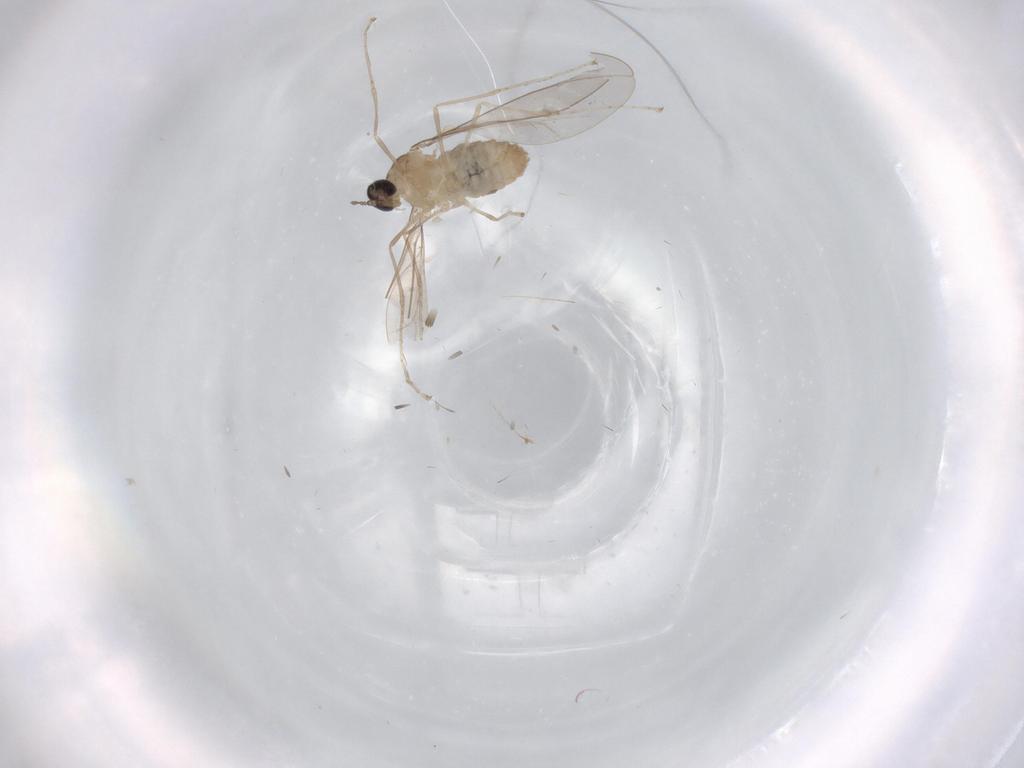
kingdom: Animalia
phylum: Arthropoda
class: Insecta
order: Diptera
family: Cecidomyiidae
